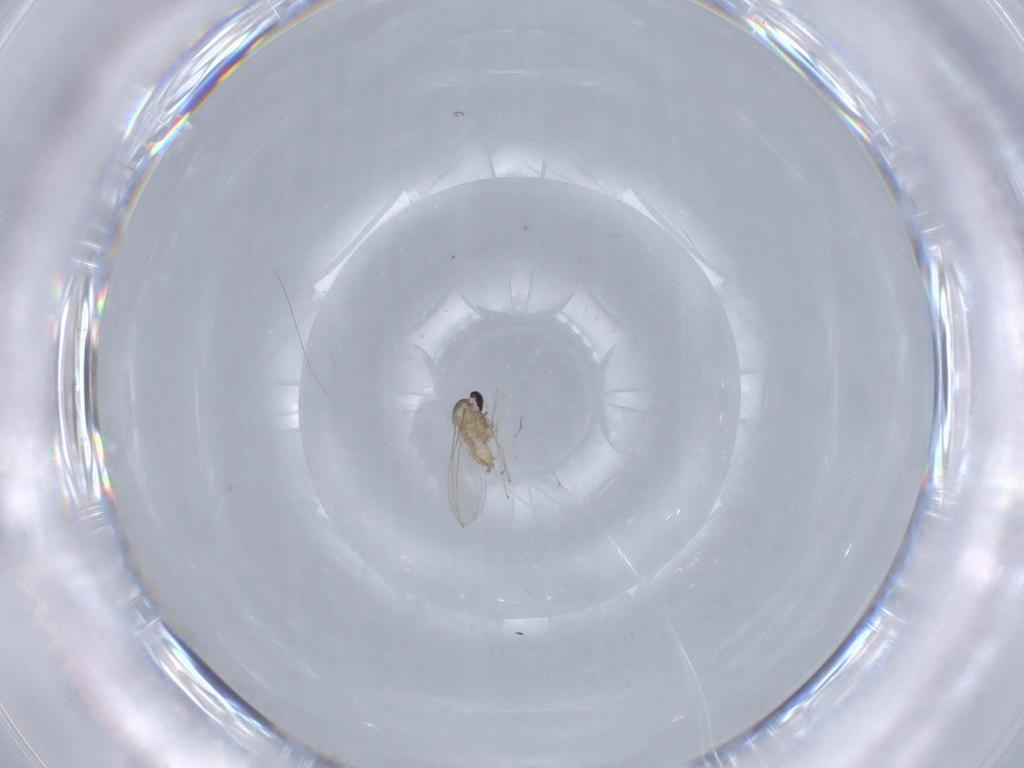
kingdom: Animalia
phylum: Arthropoda
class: Insecta
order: Diptera
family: Cecidomyiidae
